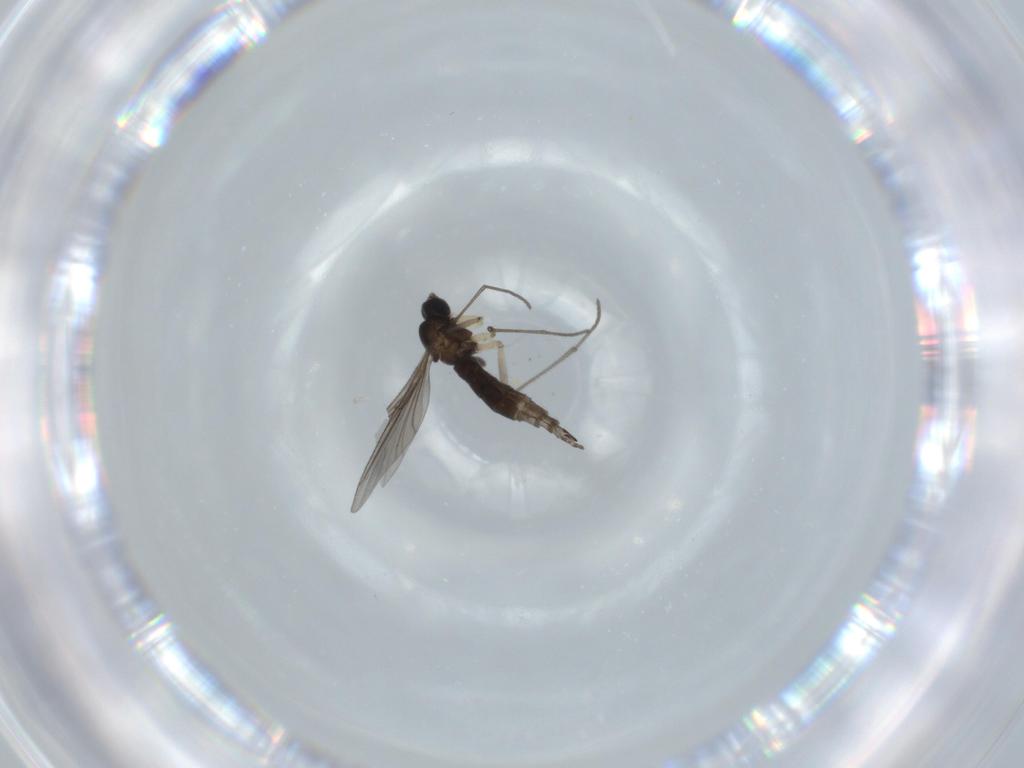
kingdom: Animalia
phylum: Arthropoda
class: Insecta
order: Diptera
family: Sciaridae
